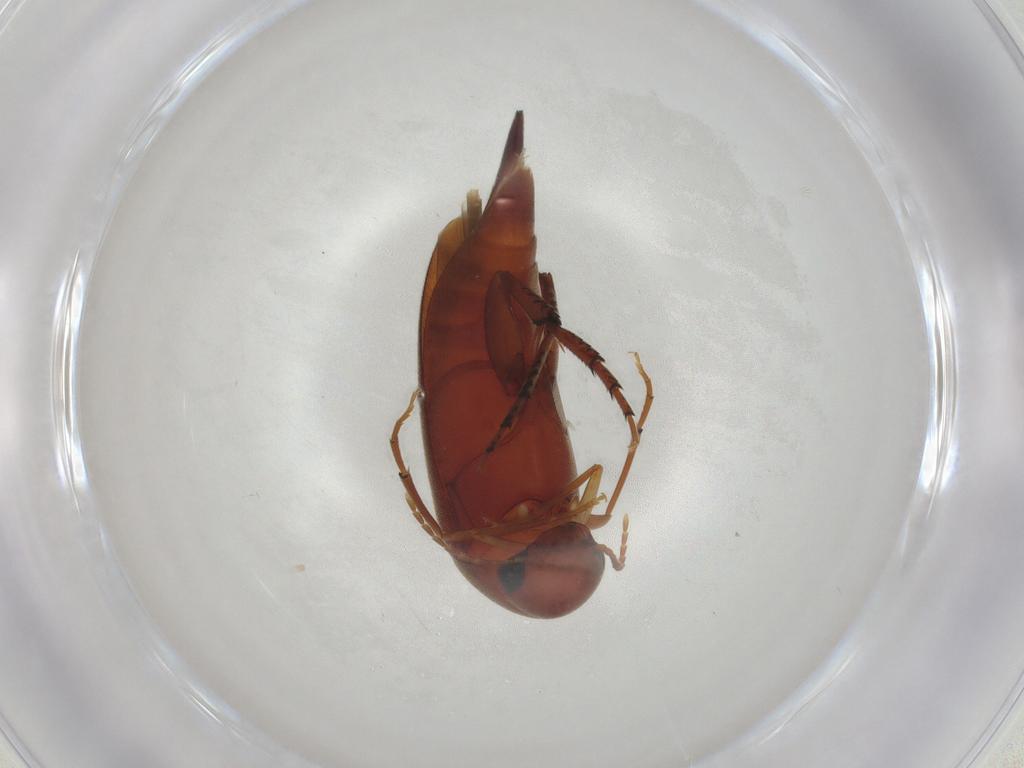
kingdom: Animalia
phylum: Arthropoda
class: Insecta
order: Coleoptera
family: Mordellidae
